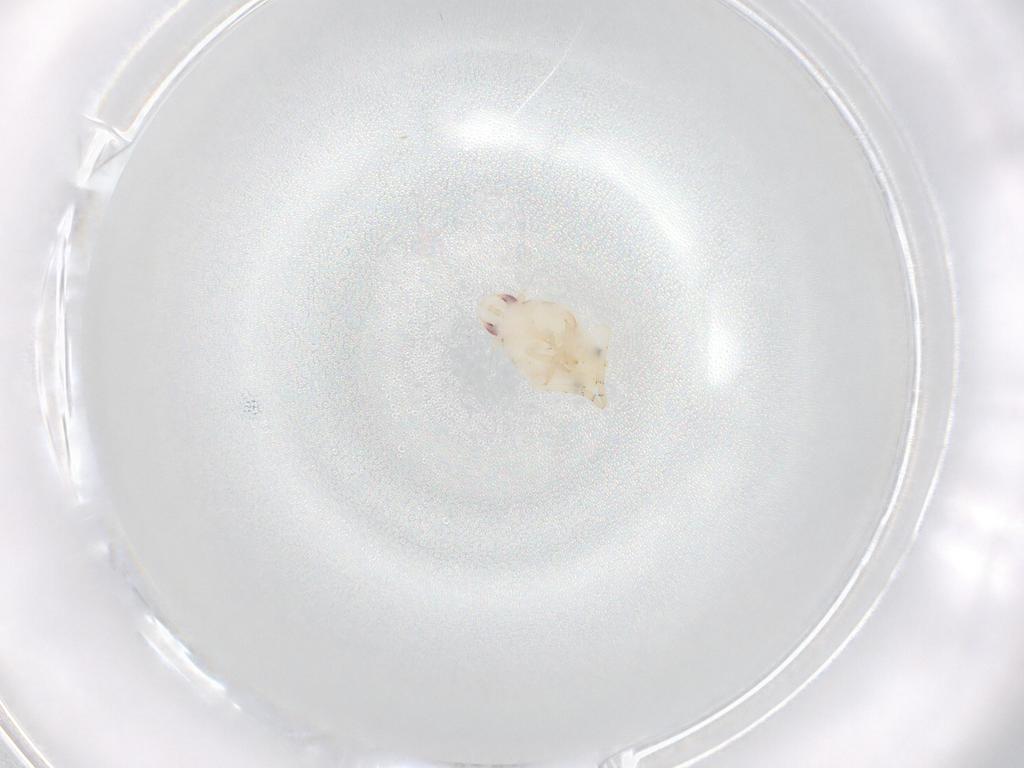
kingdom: Animalia
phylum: Arthropoda
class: Insecta
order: Hemiptera
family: Flatidae
